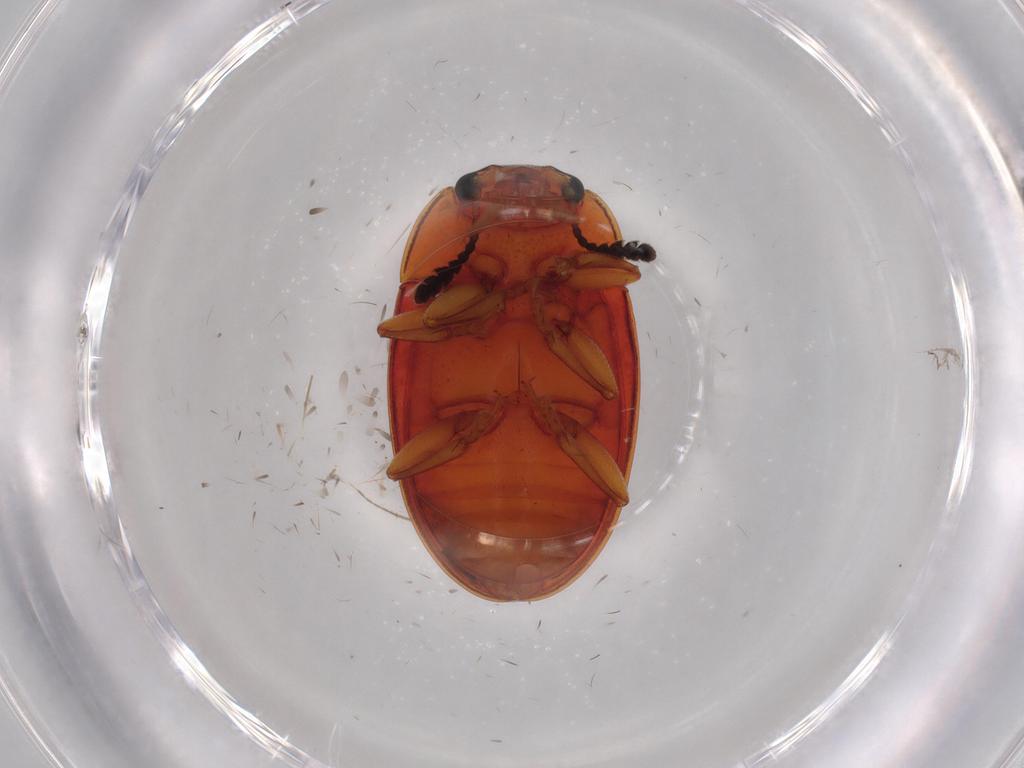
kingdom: Animalia
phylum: Arthropoda
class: Insecta
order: Coleoptera
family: Erotylidae
